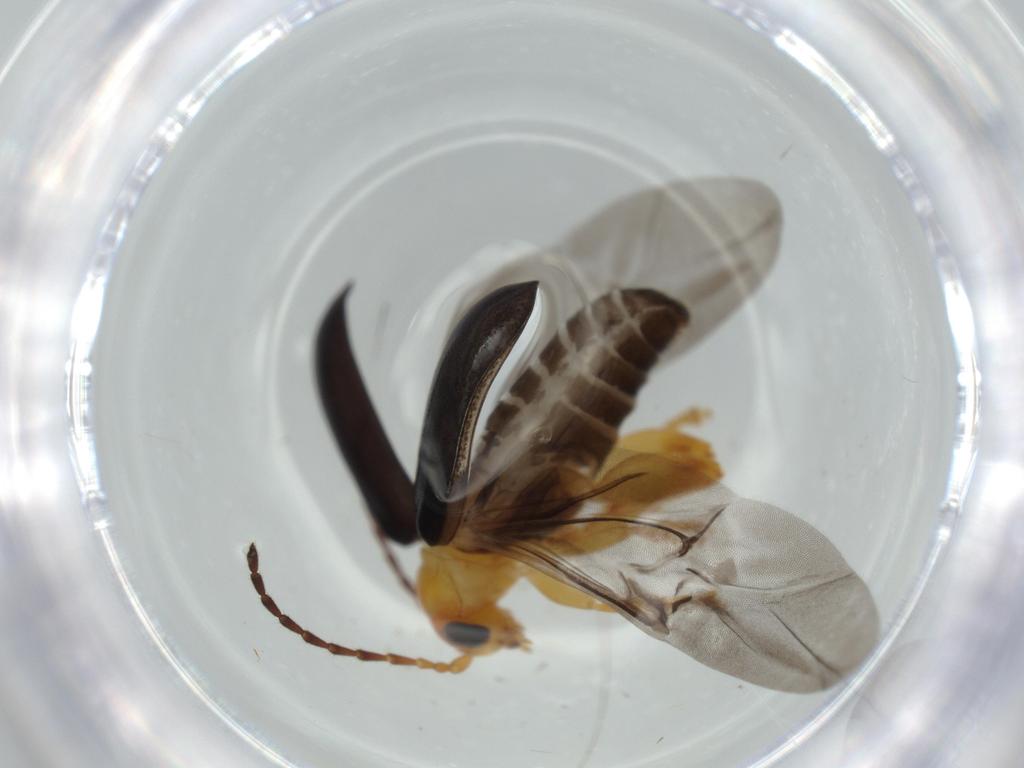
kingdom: Animalia
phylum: Arthropoda
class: Insecta
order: Coleoptera
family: Chrysomelidae
